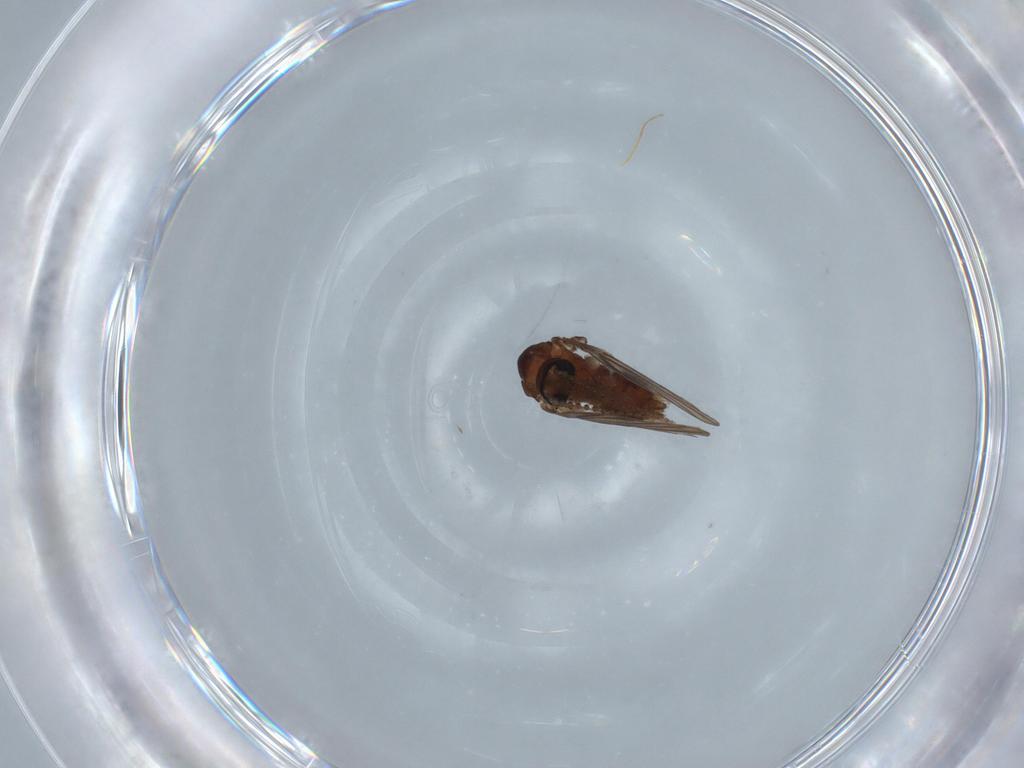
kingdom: Animalia
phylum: Arthropoda
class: Insecta
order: Diptera
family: Psychodidae
